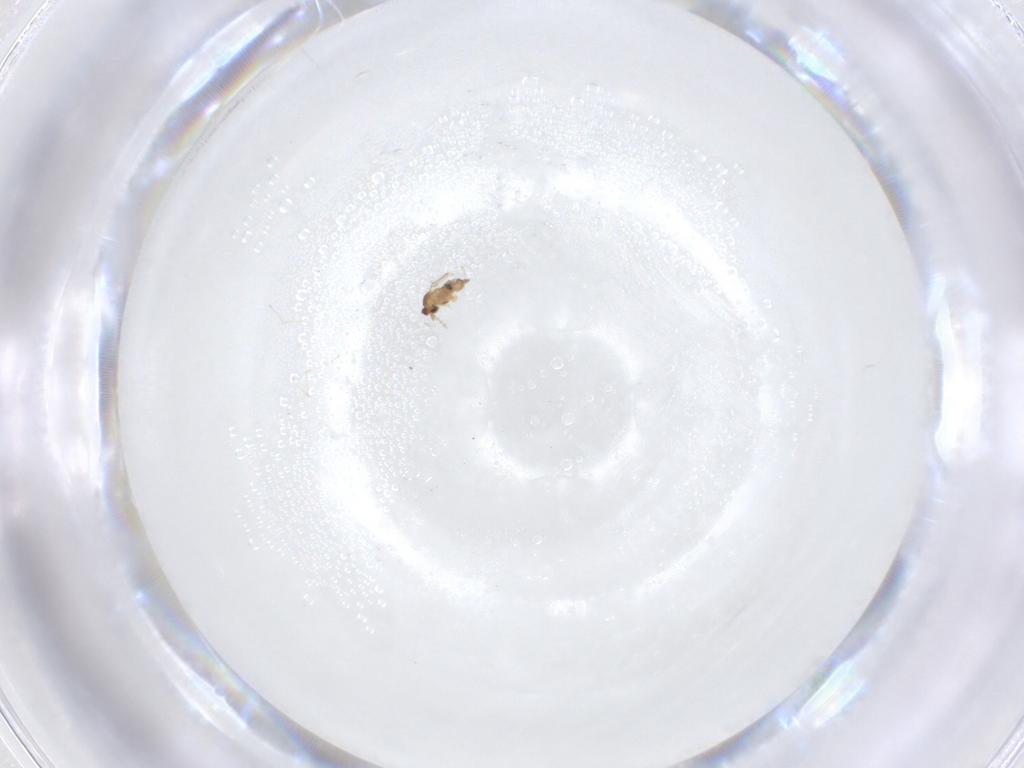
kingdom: Animalia
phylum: Arthropoda
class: Insecta
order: Diptera
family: Cecidomyiidae
